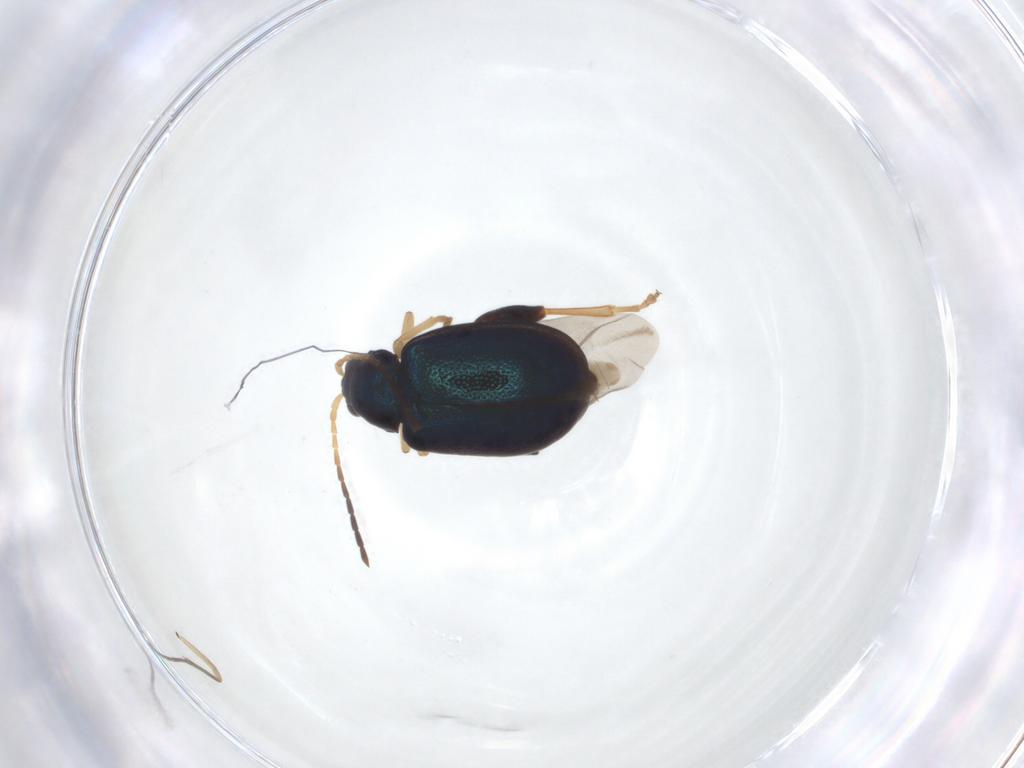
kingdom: Animalia
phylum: Arthropoda
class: Insecta
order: Coleoptera
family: Chrysomelidae
